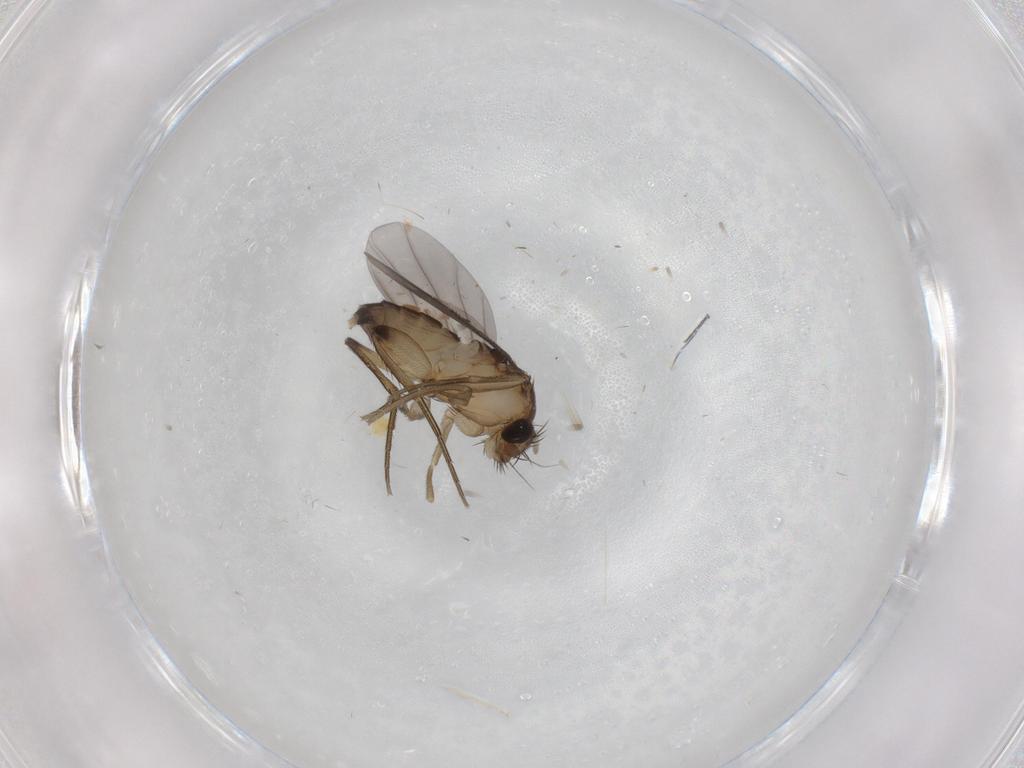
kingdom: Animalia
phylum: Arthropoda
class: Insecta
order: Diptera
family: Phoridae
